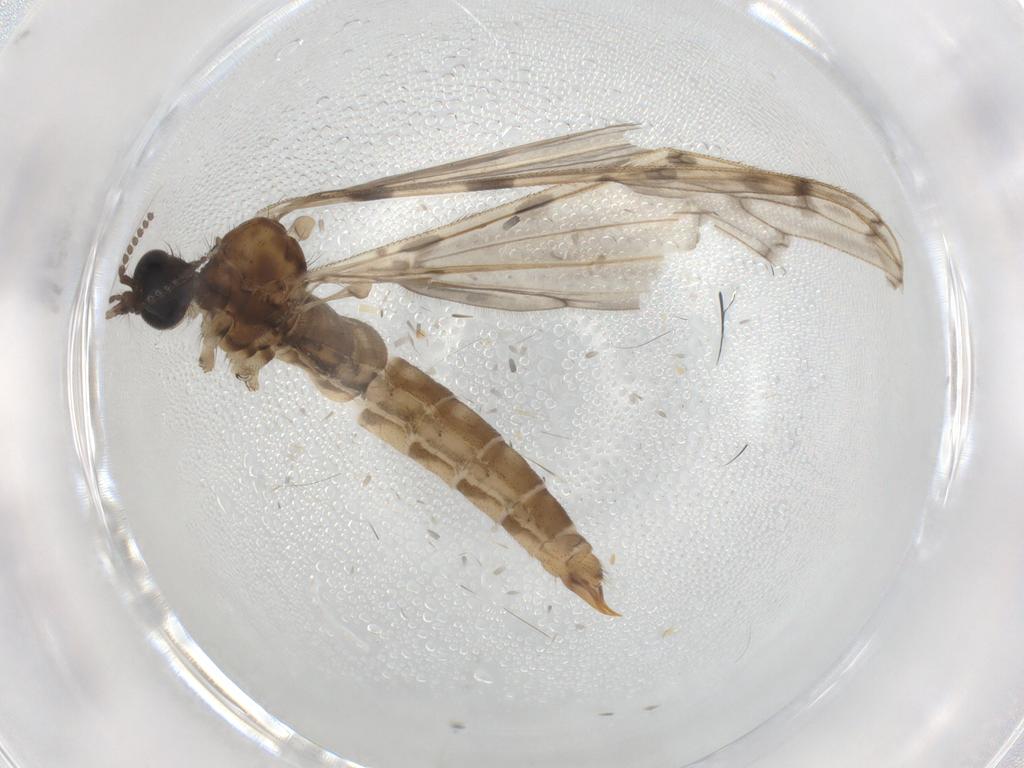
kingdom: Animalia
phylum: Arthropoda
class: Insecta
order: Diptera
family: Limoniidae
